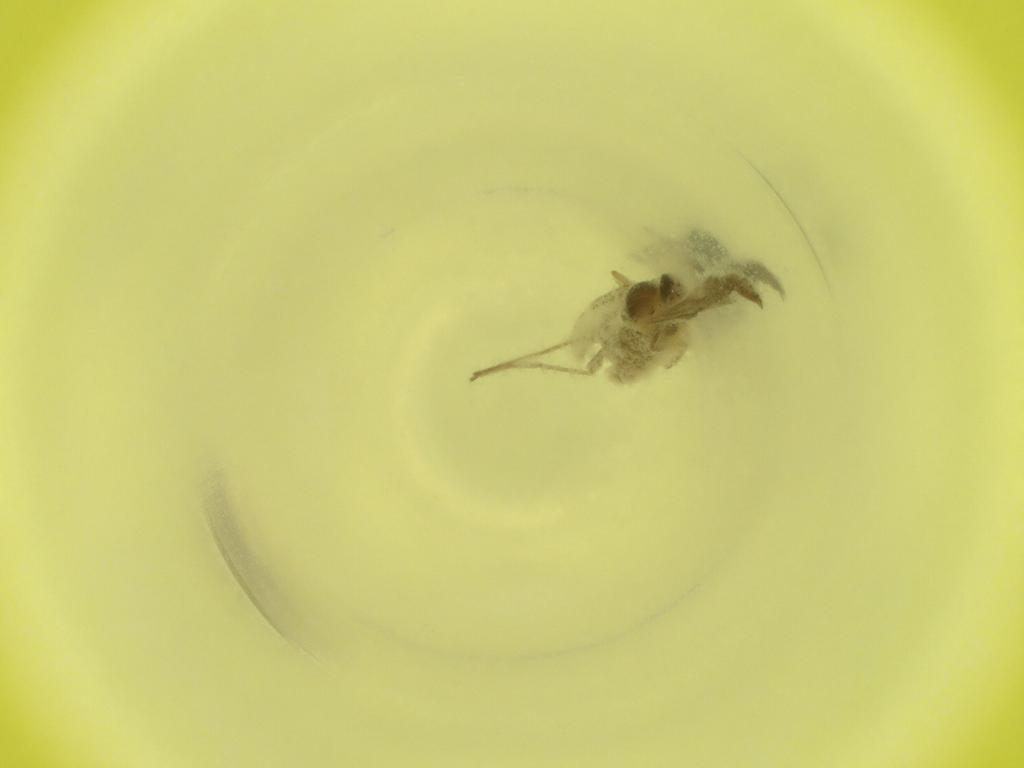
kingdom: Animalia
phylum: Arthropoda
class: Insecta
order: Diptera
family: Cecidomyiidae
